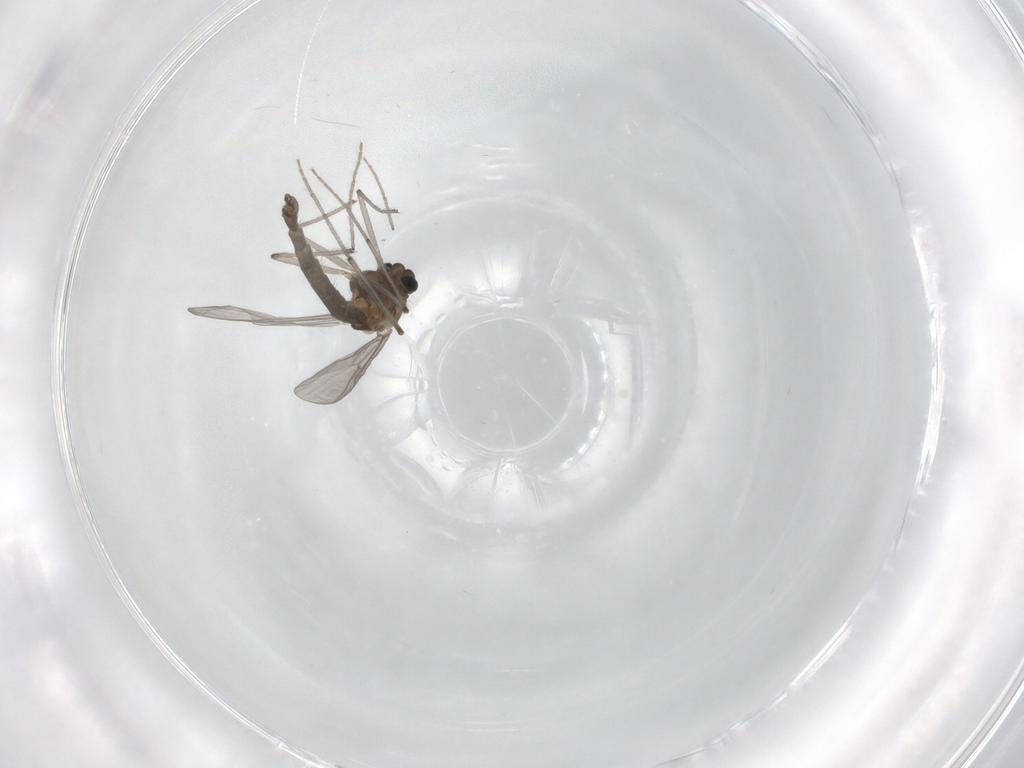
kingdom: Animalia
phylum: Arthropoda
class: Insecta
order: Diptera
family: Chironomidae
